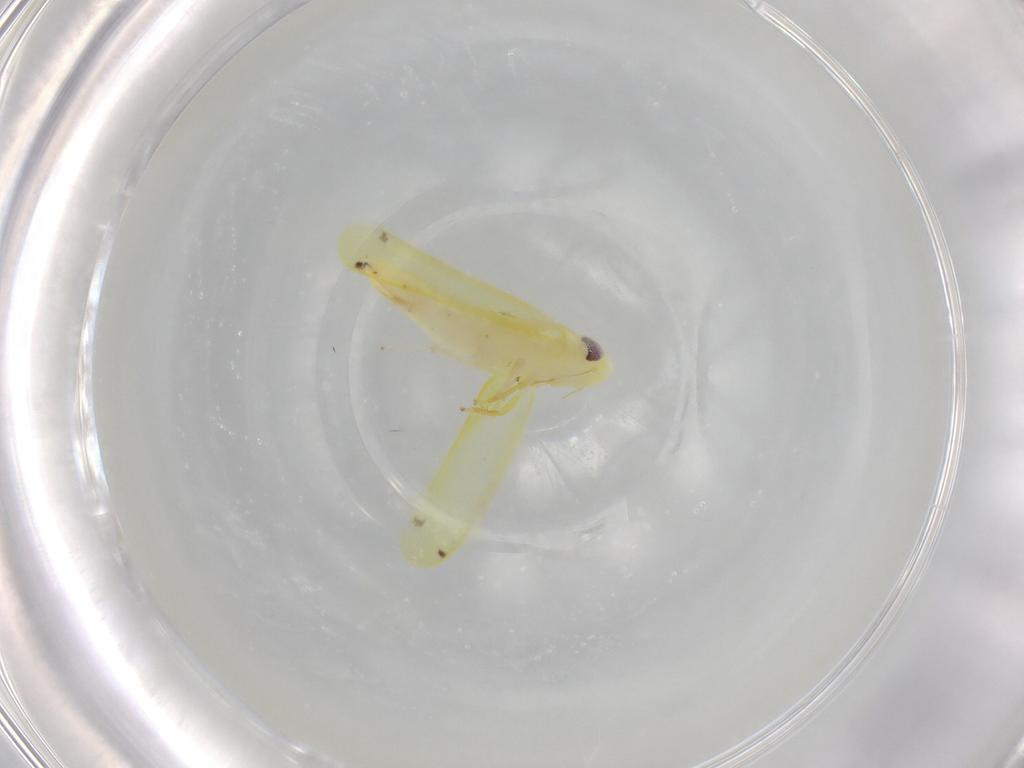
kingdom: Animalia
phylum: Arthropoda
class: Insecta
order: Hemiptera
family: Cicadellidae
